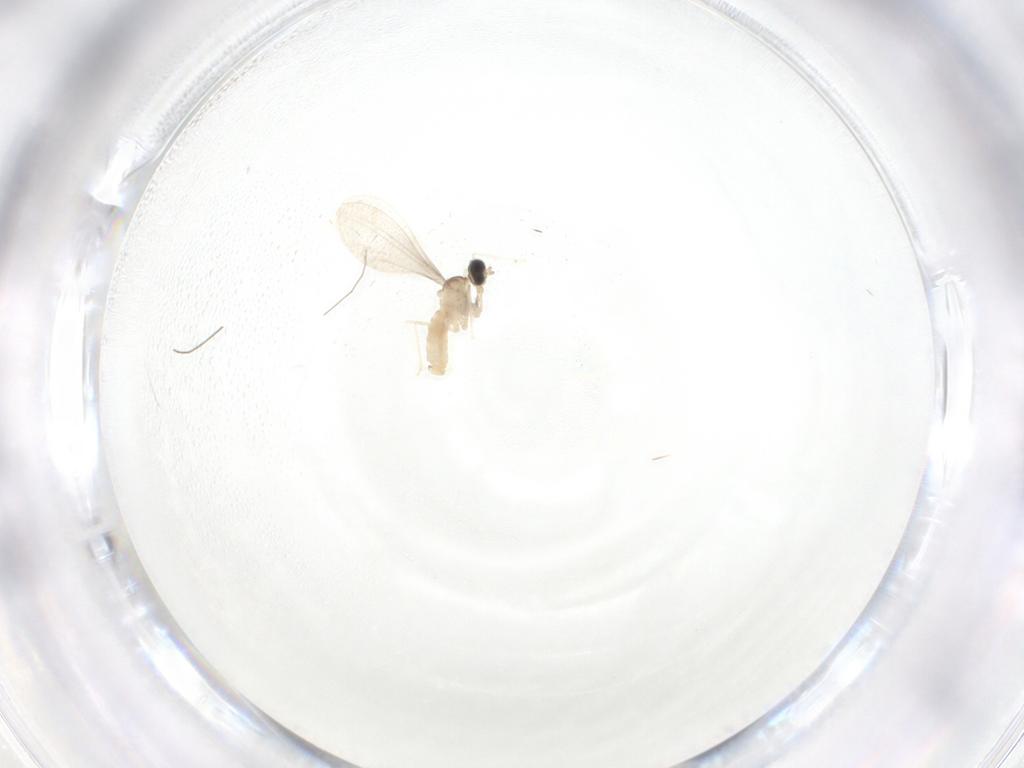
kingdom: Animalia
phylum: Arthropoda
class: Insecta
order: Diptera
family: Cecidomyiidae
